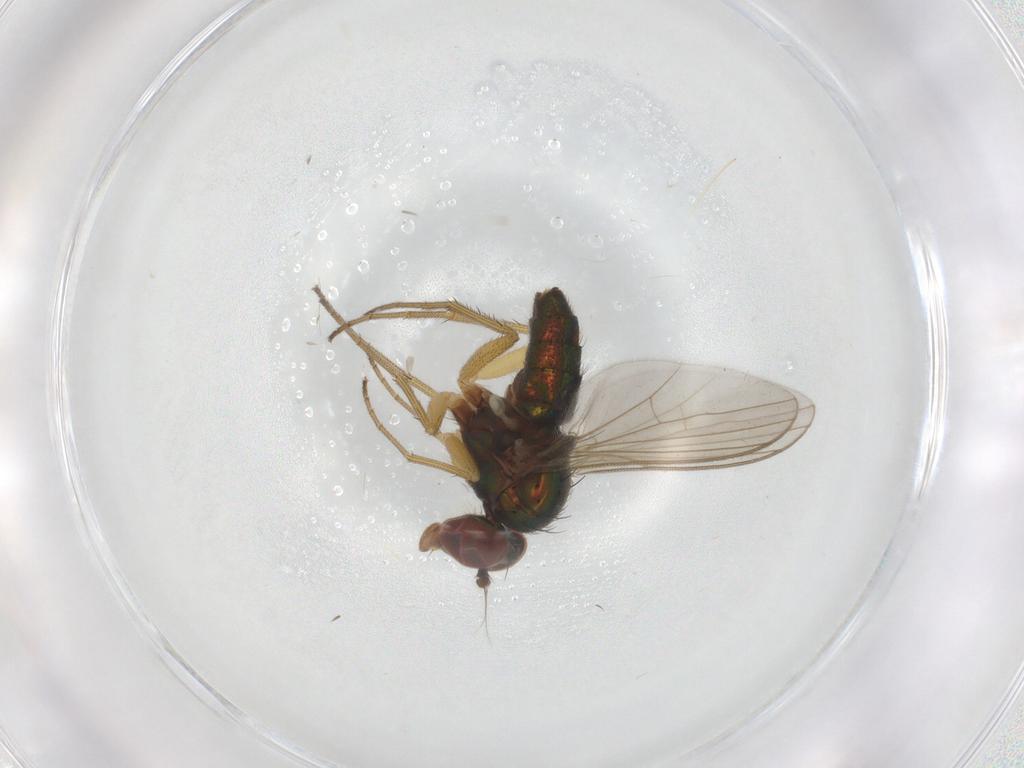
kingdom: Animalia
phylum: Arthropoda
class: Insecta
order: Diptera
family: Dolichopodidae
